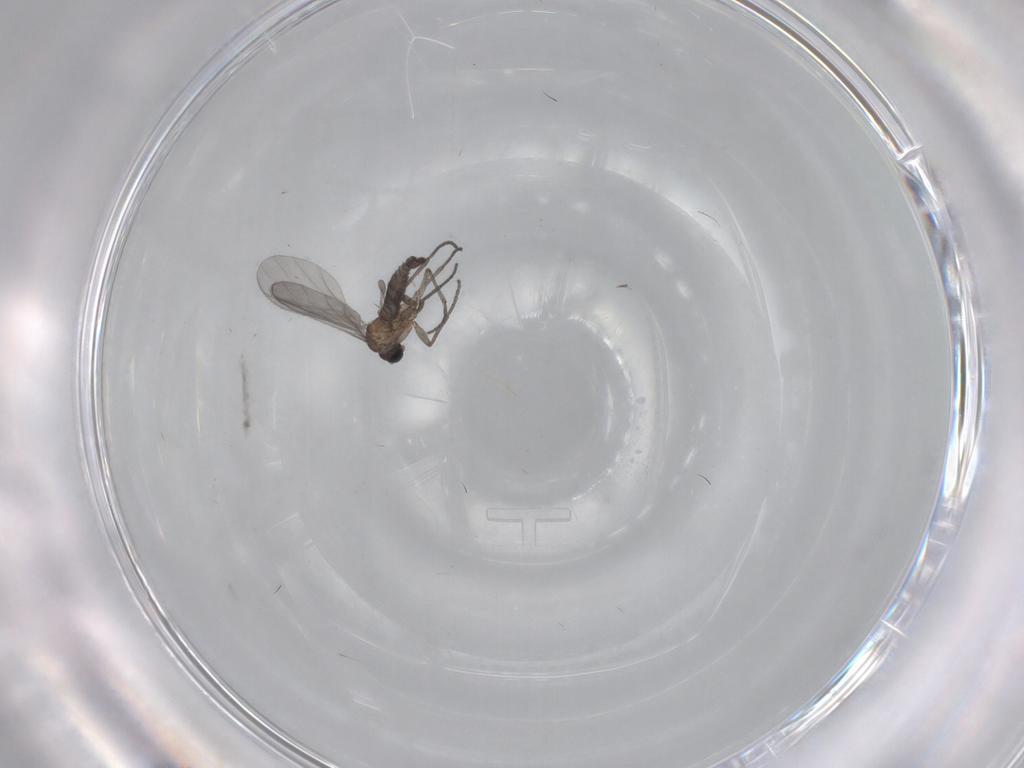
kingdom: Animalia
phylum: Arthropoda
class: Insecta
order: Diptera
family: Sciaridae
